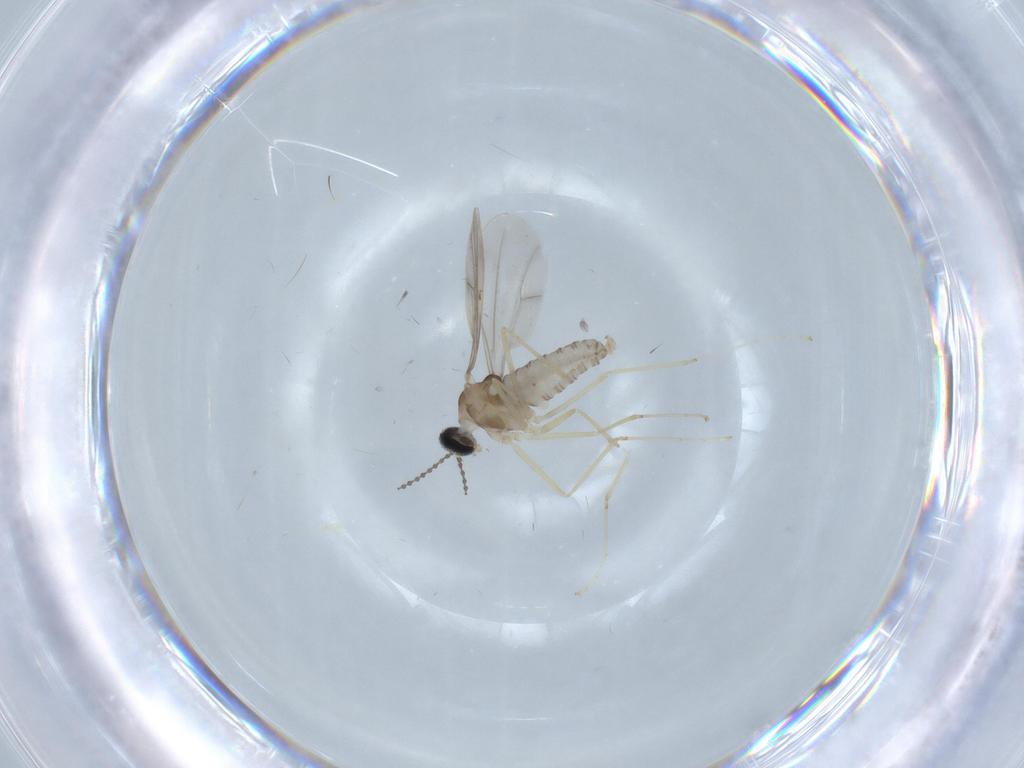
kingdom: Animalia
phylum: Arthropoda
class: Insecta
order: Diptera
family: Cecidomyiidae
